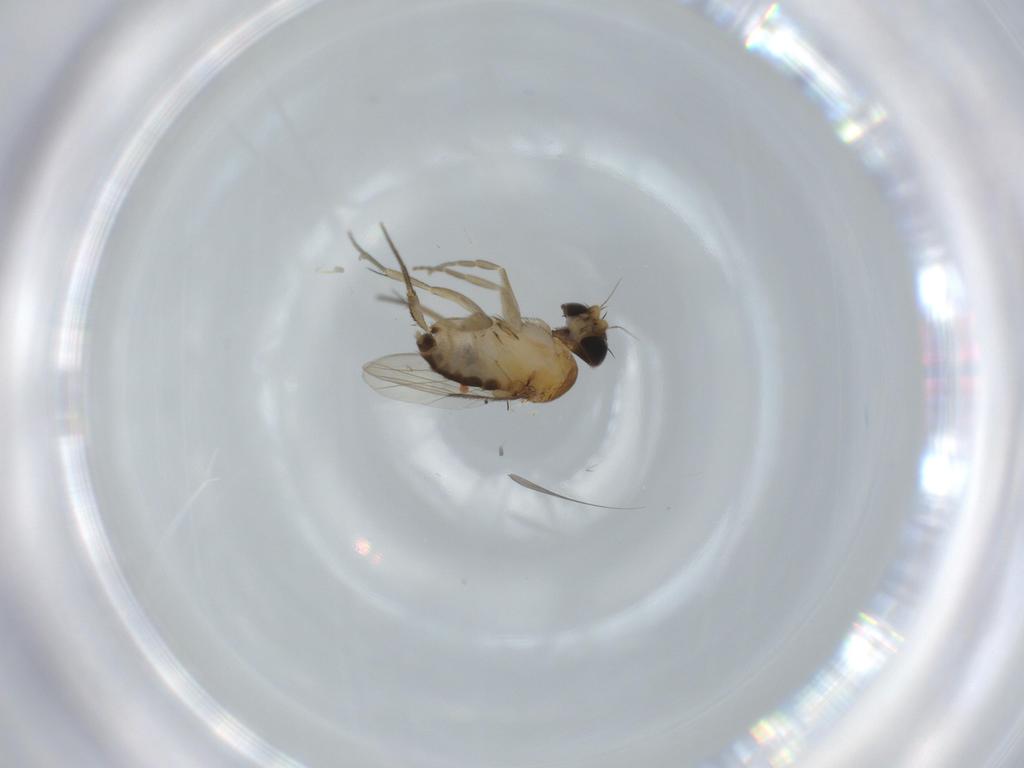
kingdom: Animalia
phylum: Arthropoda
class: Insecta
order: Diptera
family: Phoridae
